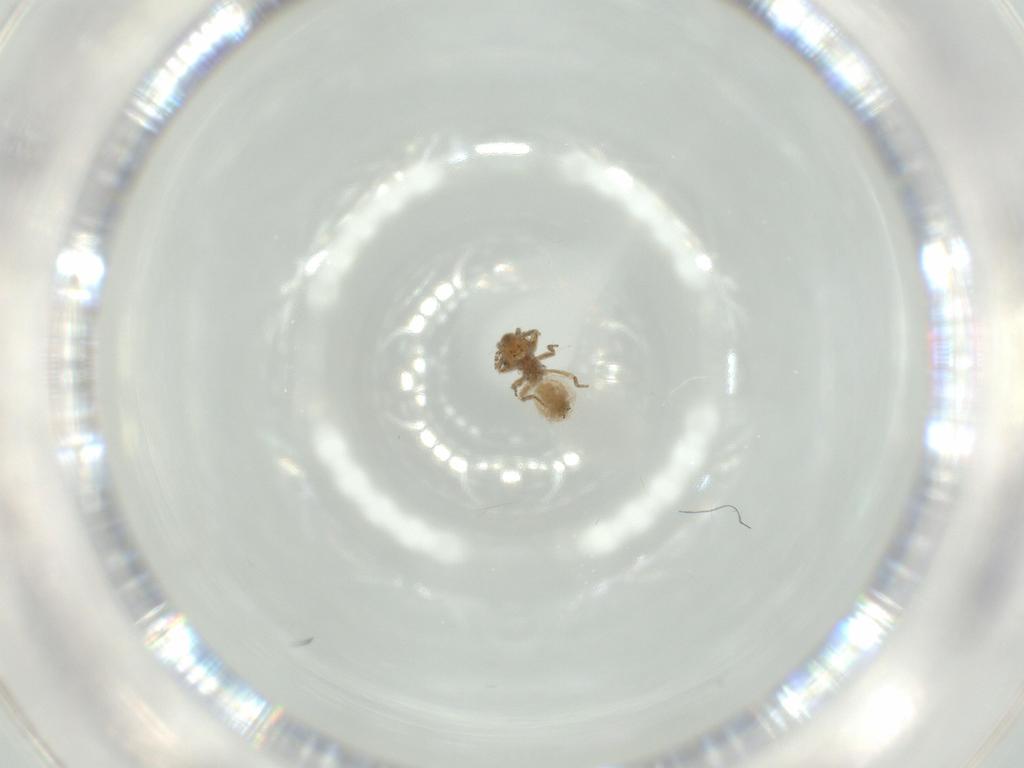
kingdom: Animalia
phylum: Arthropoda
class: Insecta
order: Psocodea
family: Lepidopsocidae
